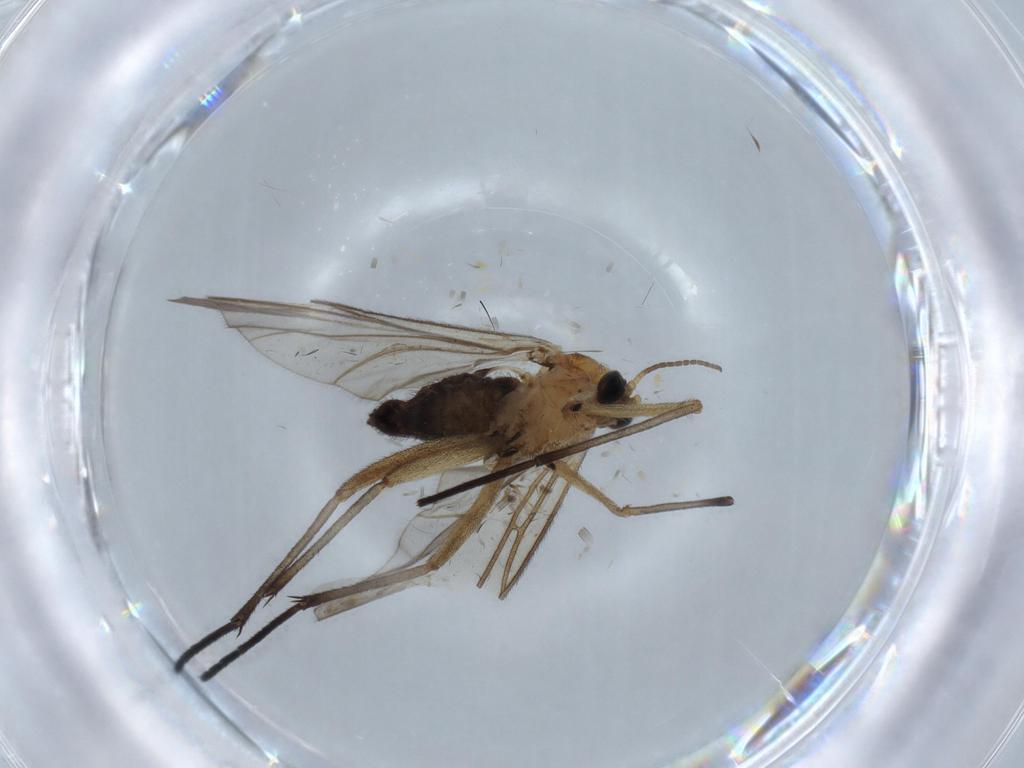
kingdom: Animalia
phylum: Arthropoda
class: Insecta
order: Diptera
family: Sciaridae
